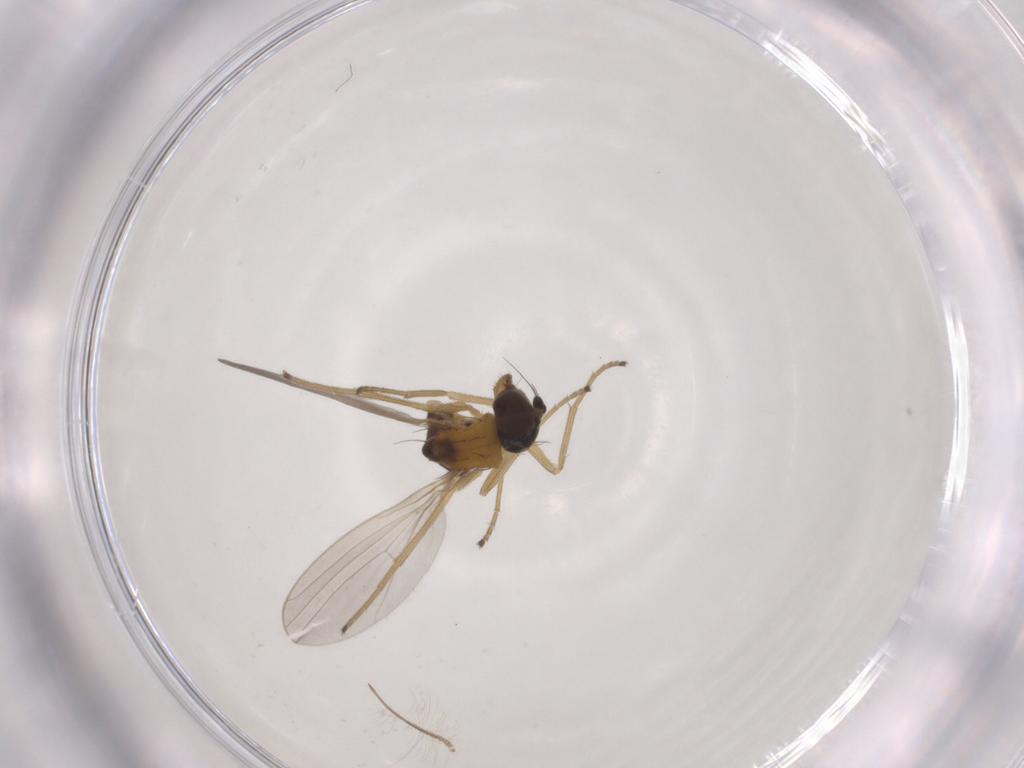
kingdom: Animalia
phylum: Arthropoda
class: Insecta
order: Diptera
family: Dolichopodidae
